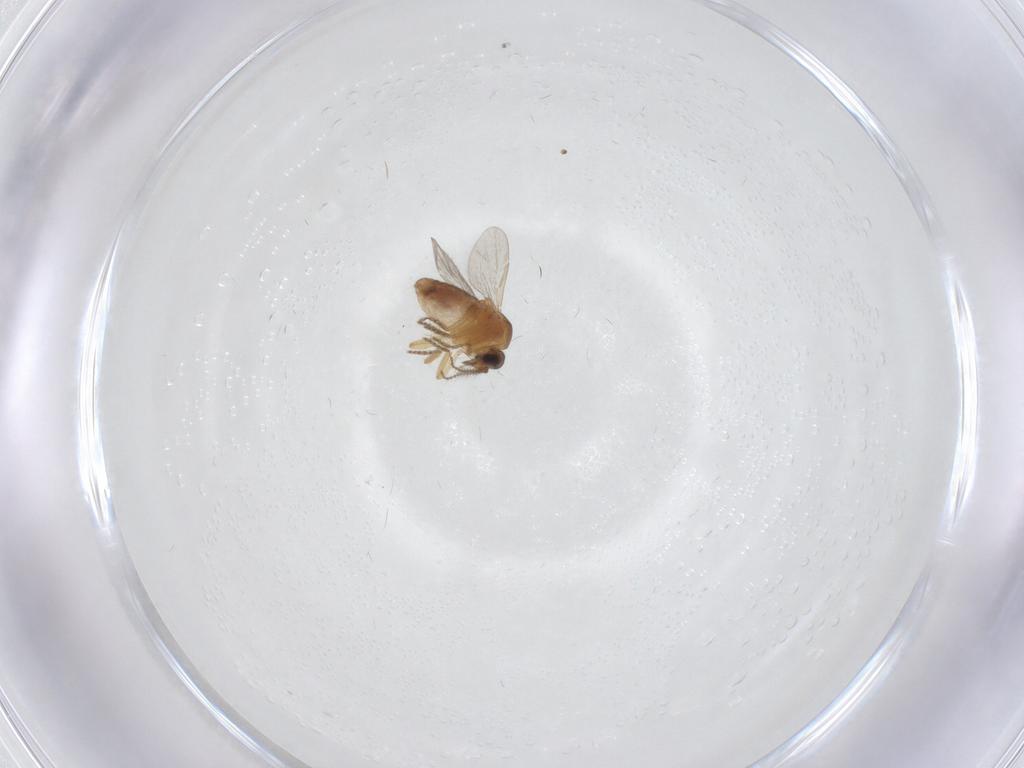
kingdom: Animalia
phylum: Arthropoda
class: Insecta
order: Diptera
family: Ceratopogonidae
